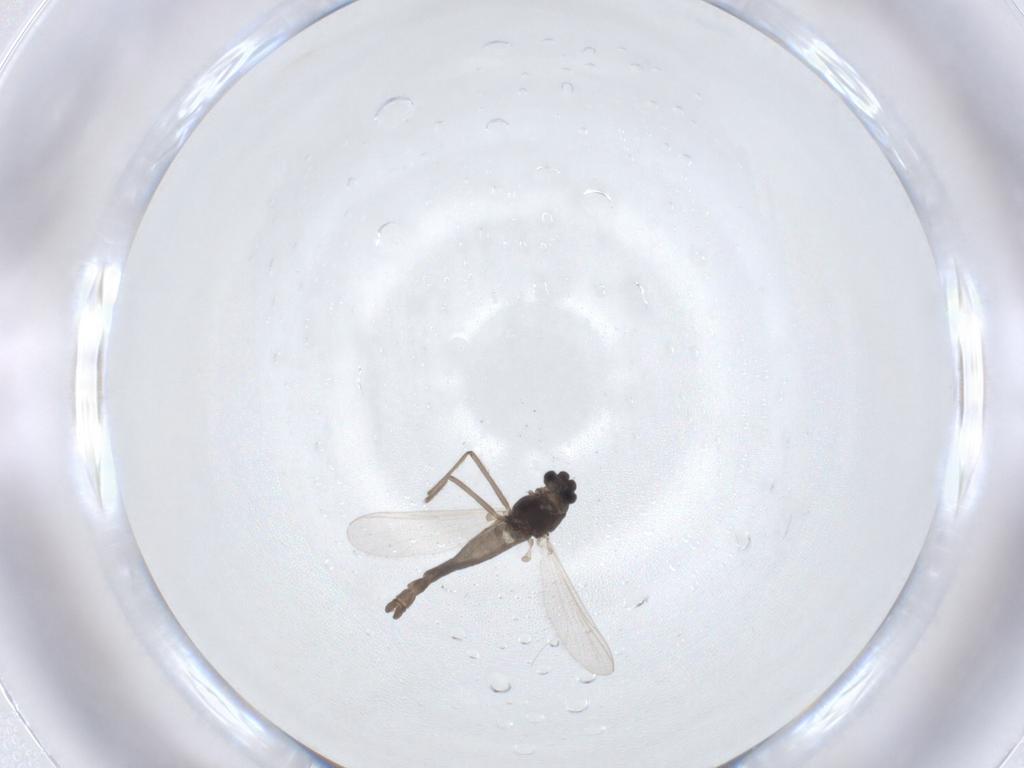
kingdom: Animalia
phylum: Arthropoda
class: Insecta
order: Diptera
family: Chironomidae
